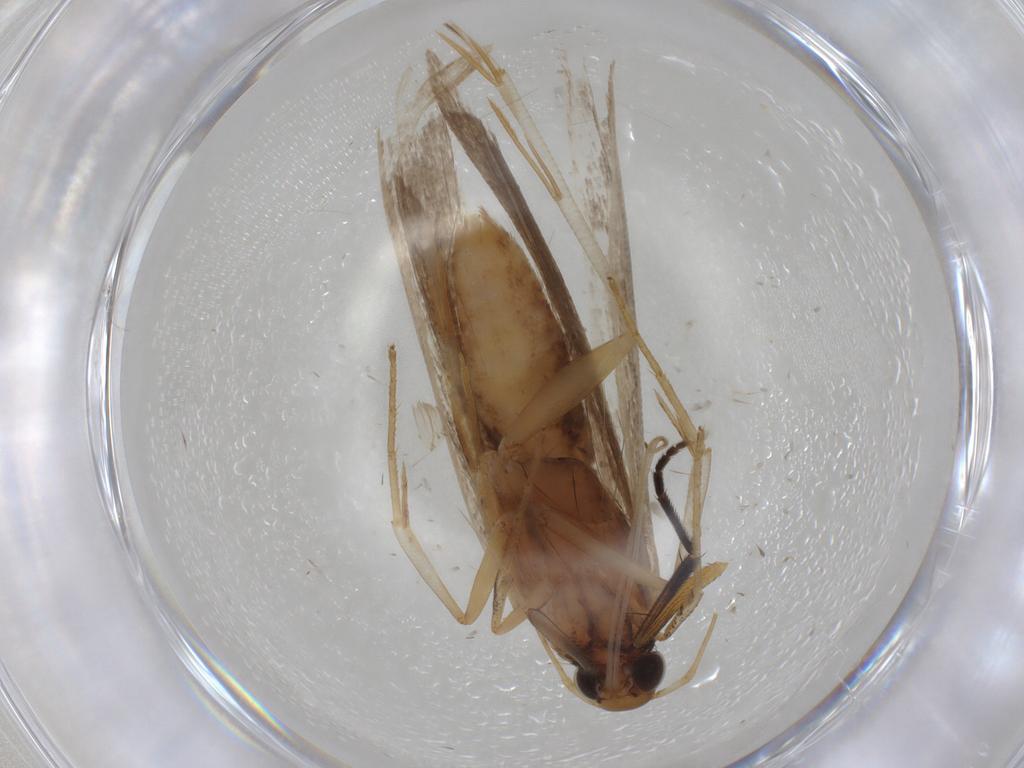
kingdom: Animalia
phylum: Arthropoda
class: Insecta
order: Lepidoptera
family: Gelechiidae
